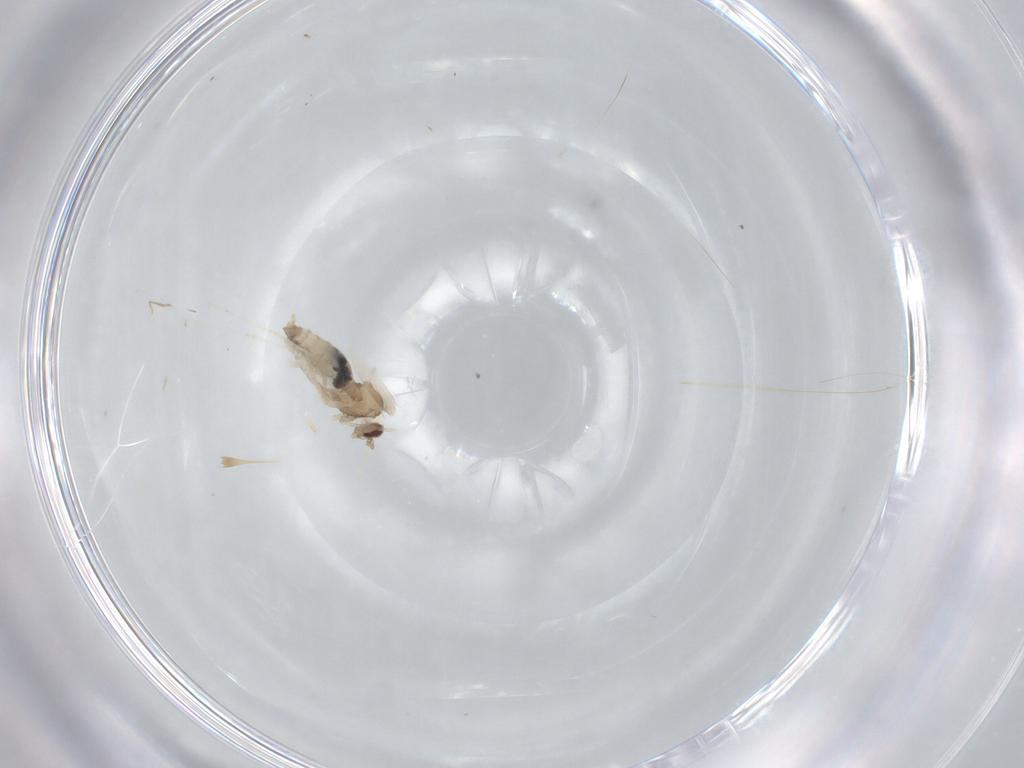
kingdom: Animalia
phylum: Arthropoda
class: Insecta
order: Diptera
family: Cecidomyiidae
